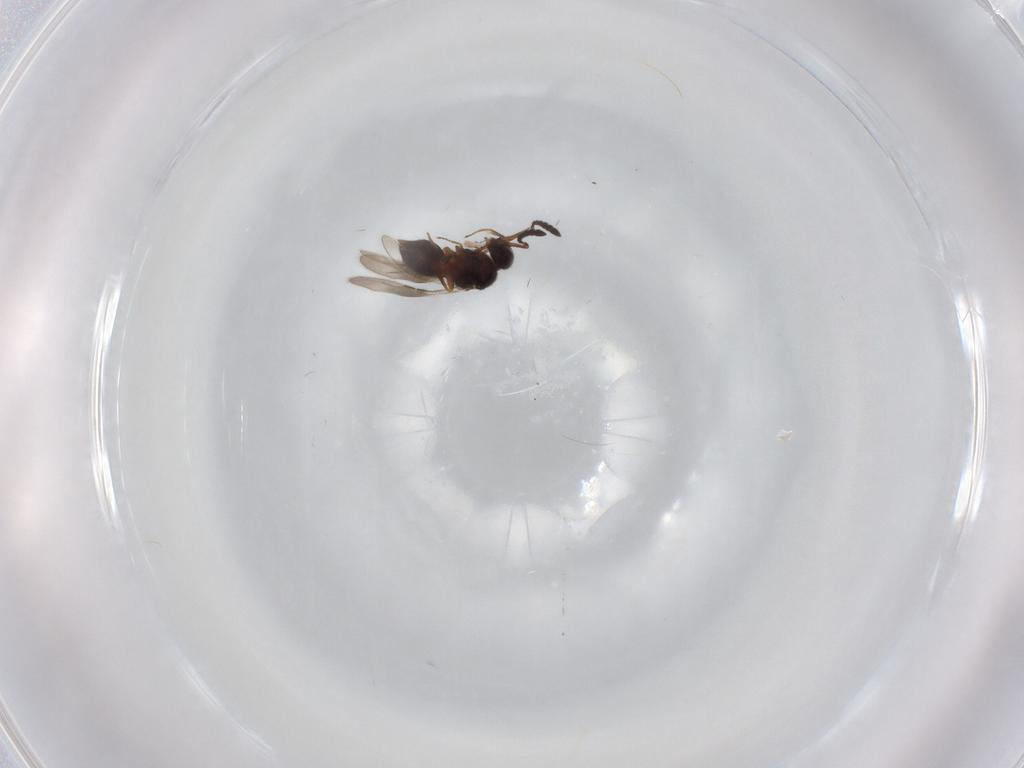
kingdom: Animalia
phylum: Arthropoda
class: Insecta
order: Hymenoptera
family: Ceraphronidae
